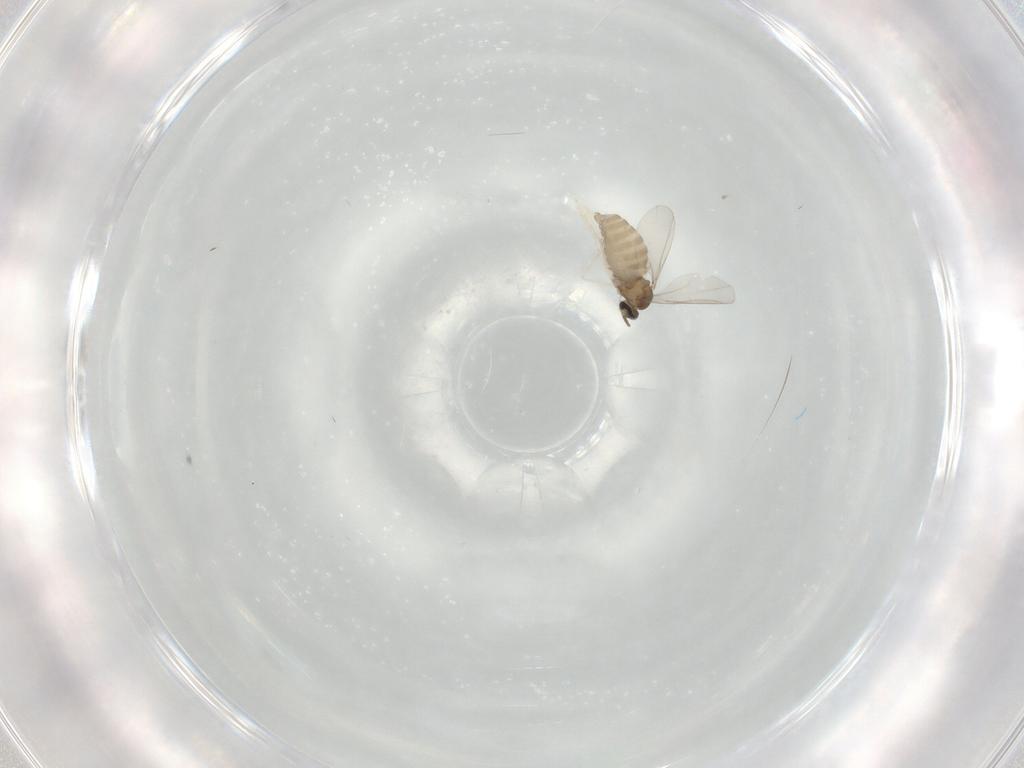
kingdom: Animalia
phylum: Arthropoda
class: Insecta
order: Diptera
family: Cecidomyiidae
